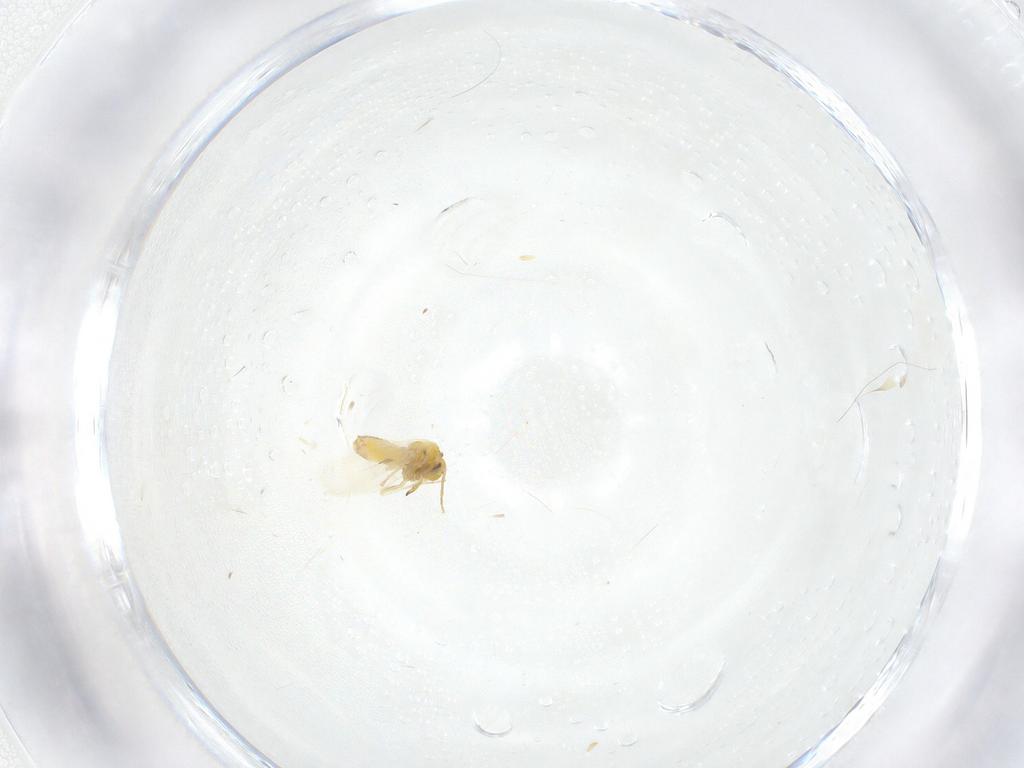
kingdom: Animalia
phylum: Arthropoda
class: Insecta
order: Hemiptera
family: Aleyrodidae
